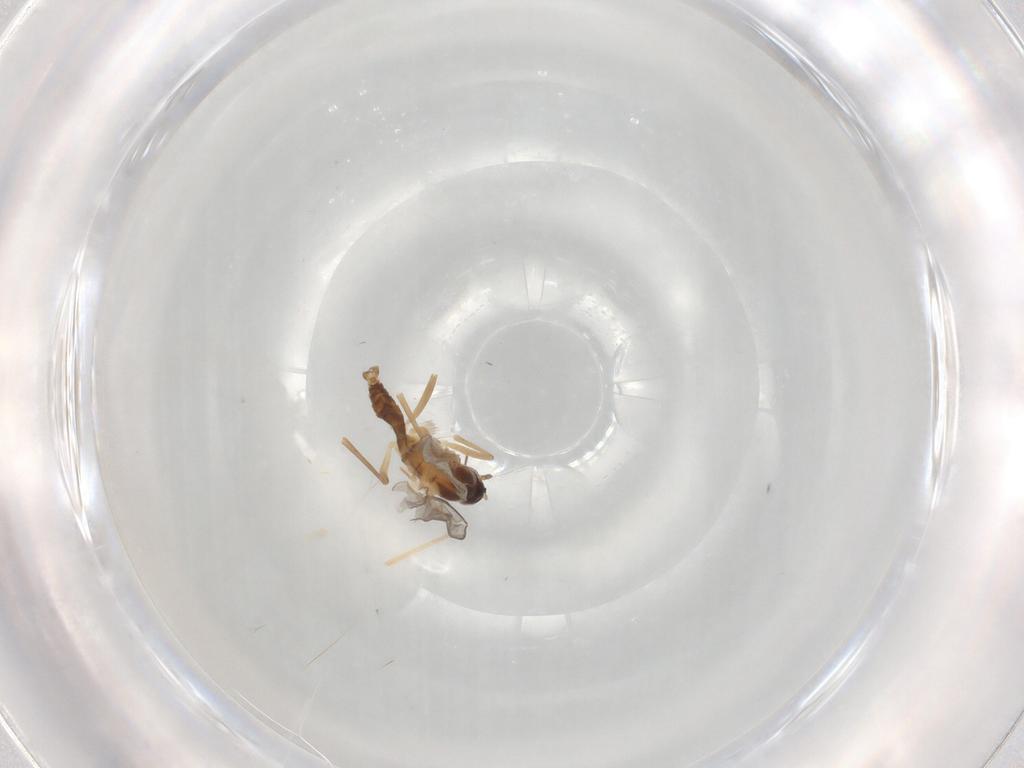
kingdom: Animalia
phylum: Arthropoda
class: Insecta
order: Diptera
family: Cecidomyiidae
